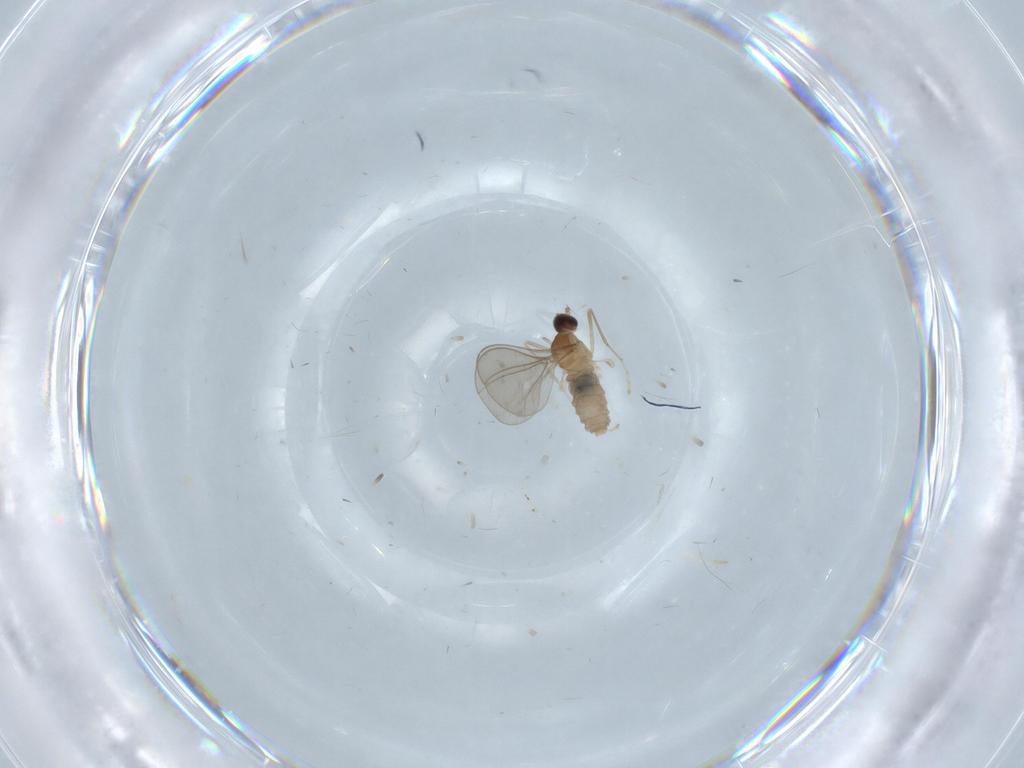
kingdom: Animalia
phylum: Arthropoda
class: Insecta
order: Diptera
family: Cecidomyiidae
